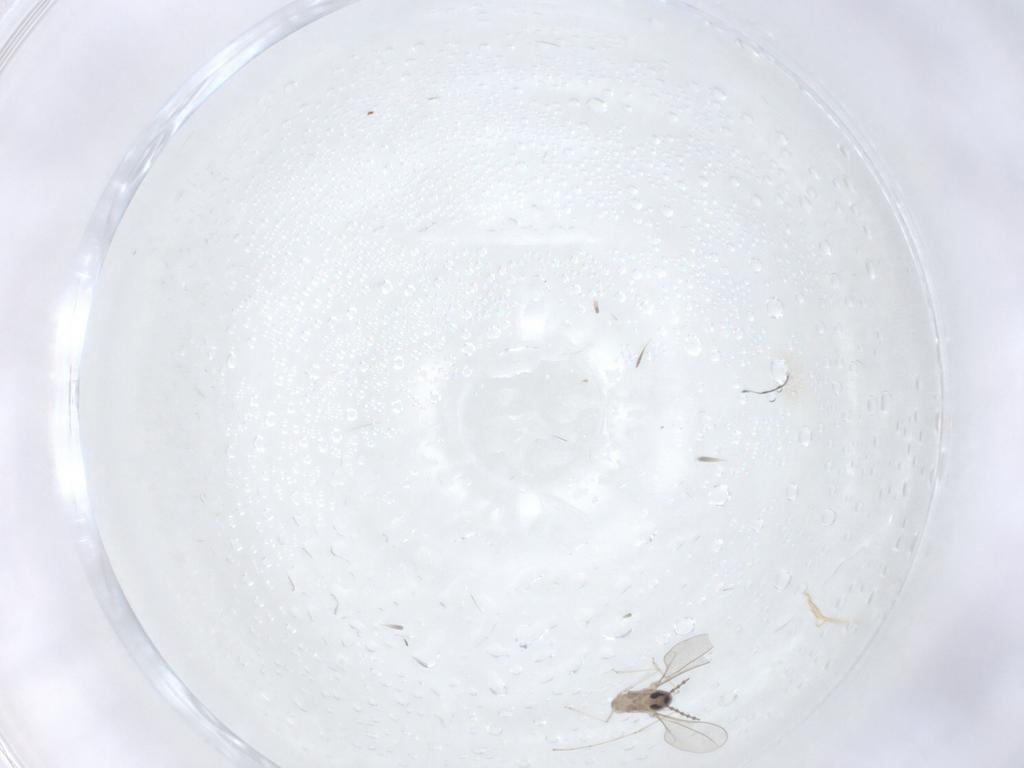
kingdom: Animalia
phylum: Arthropoda
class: Insecta
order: Diptera
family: Cecidomyiidae
